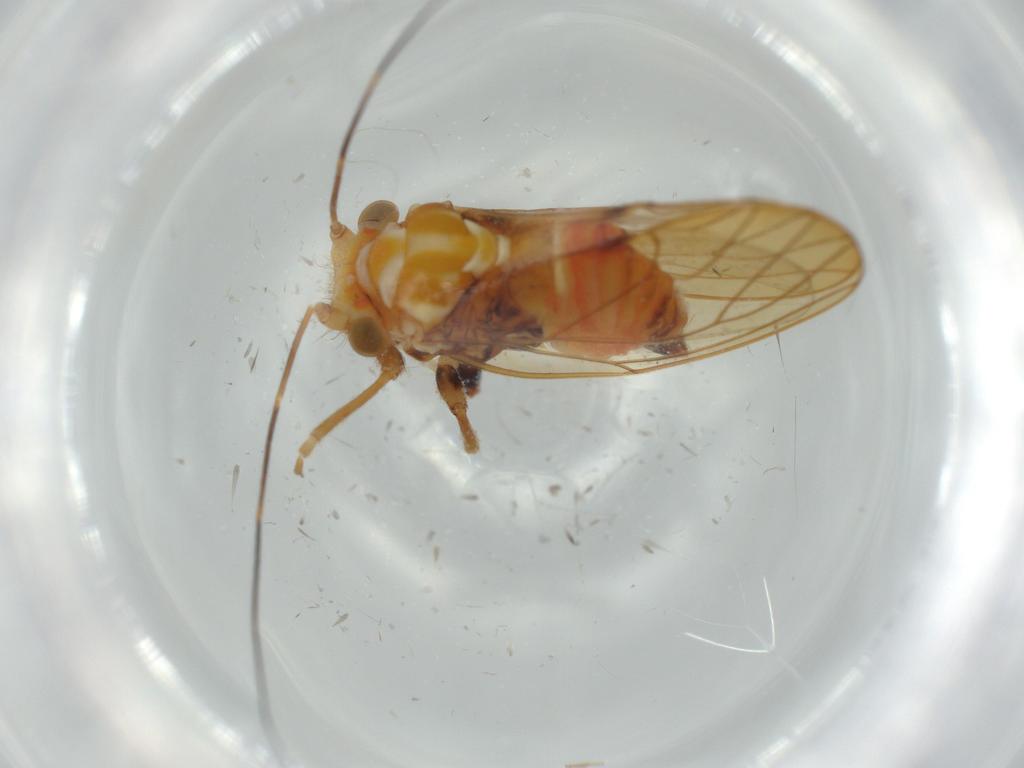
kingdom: Animalia
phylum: Arthropoda
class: Insecta
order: Hemiptera
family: Psyllidae
